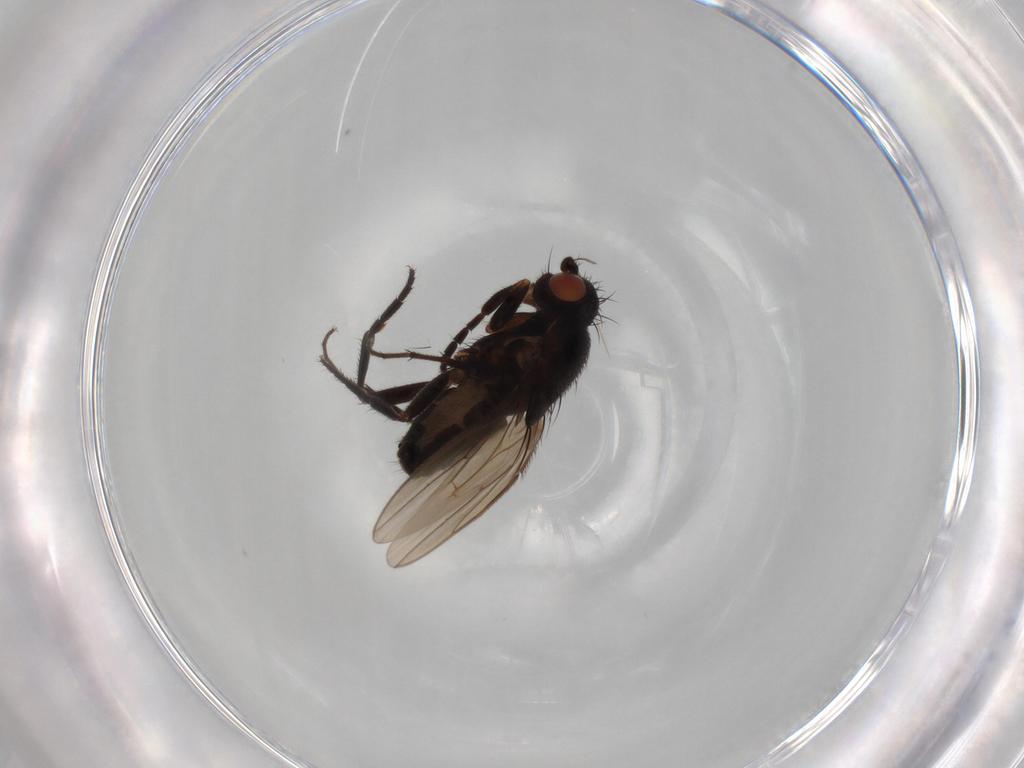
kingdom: Animalia
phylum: Arthropoda
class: Insecta
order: Diptera
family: Sphaeroceridae
